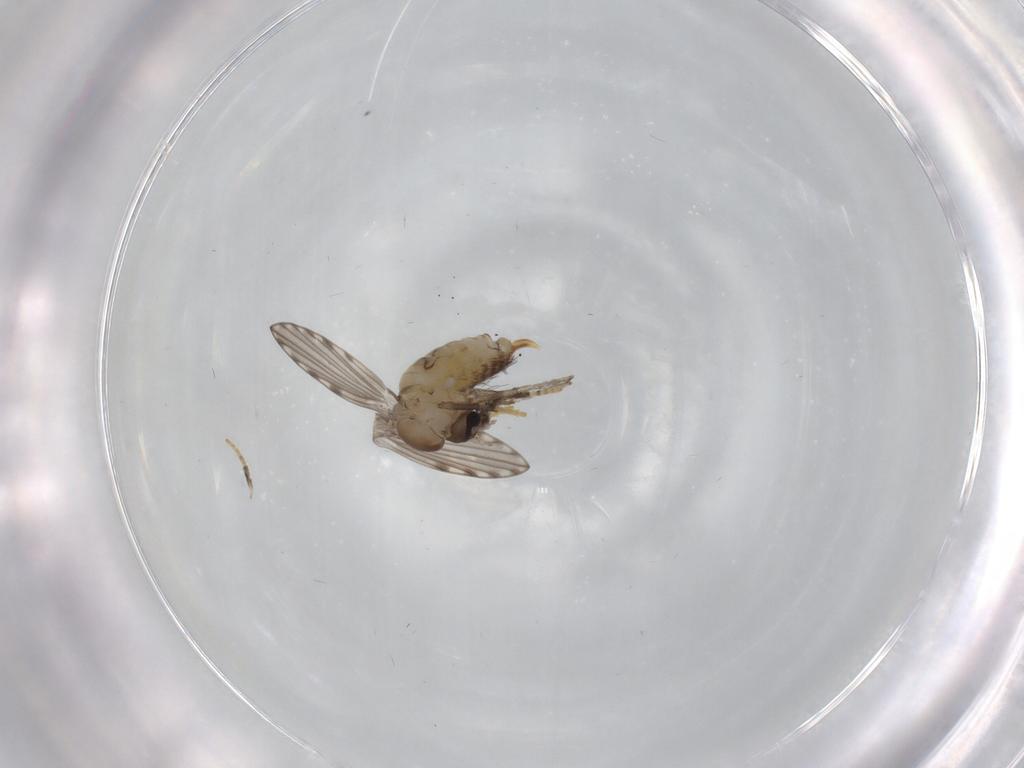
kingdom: Animalia
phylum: Arthropoda
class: Insecta
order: Diptera
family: Psychodidae
